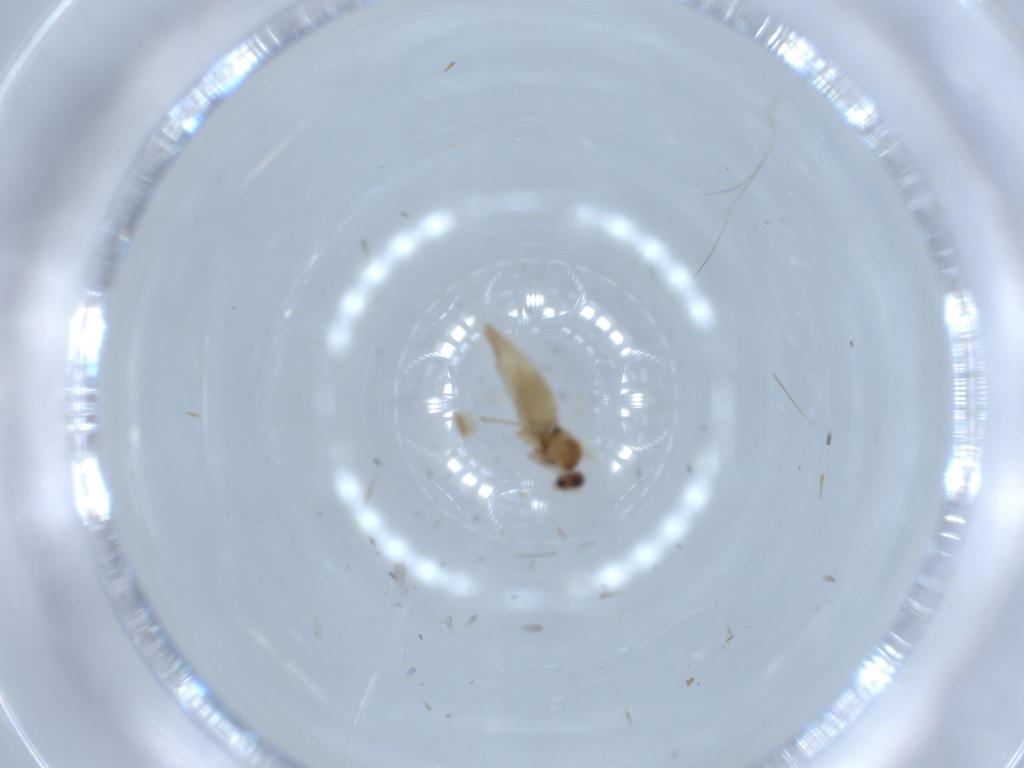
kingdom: Animalia
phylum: Arthropoda
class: Insecta
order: Diptera
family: Cecidomyiidae
